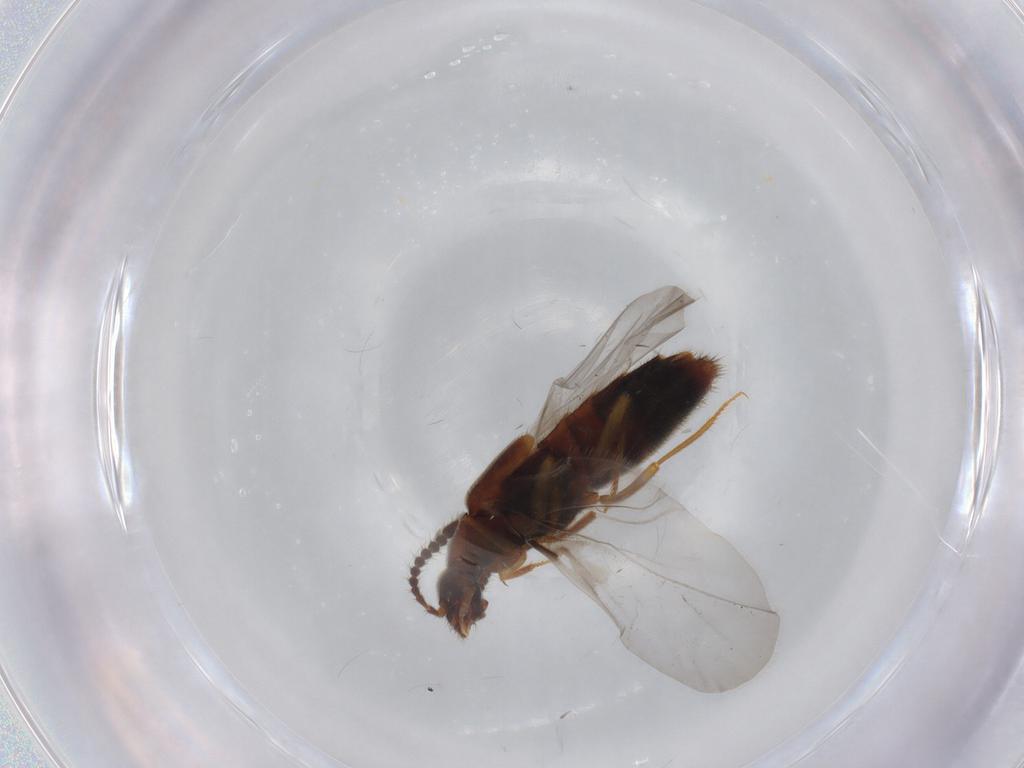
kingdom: Animalia
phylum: Arthropoda
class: Insecta
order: Coleoptera
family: Staphylinidae
